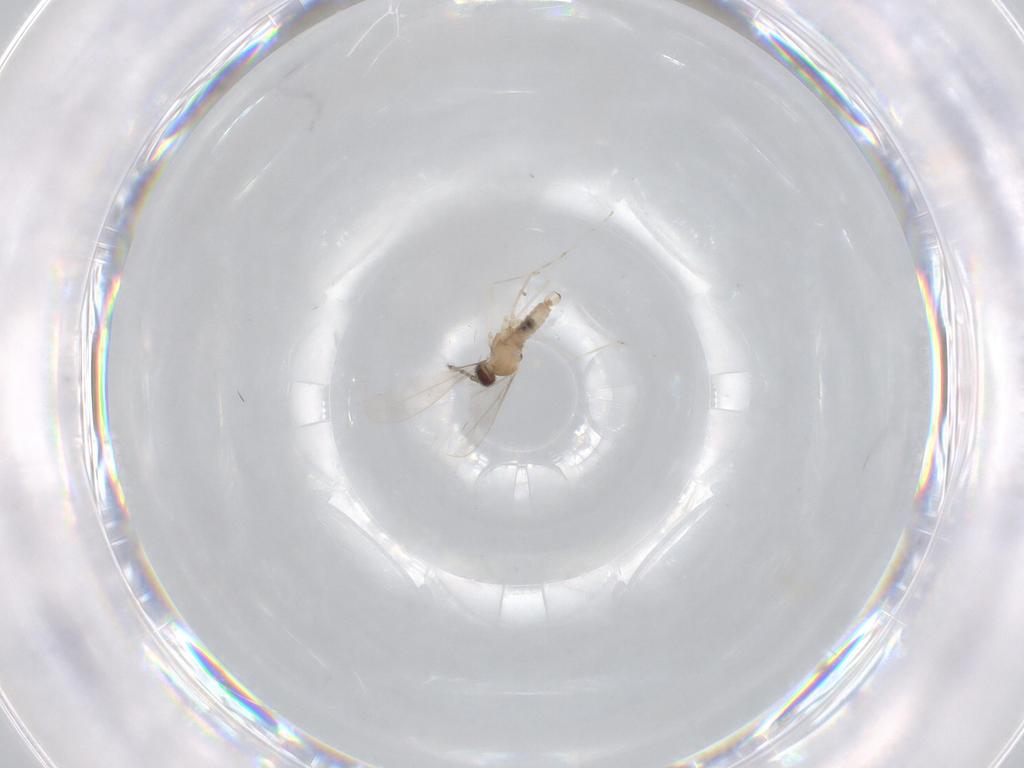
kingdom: Animalia
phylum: Arthropoda
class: Insecta
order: Diptera
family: Cecidomyiidae
